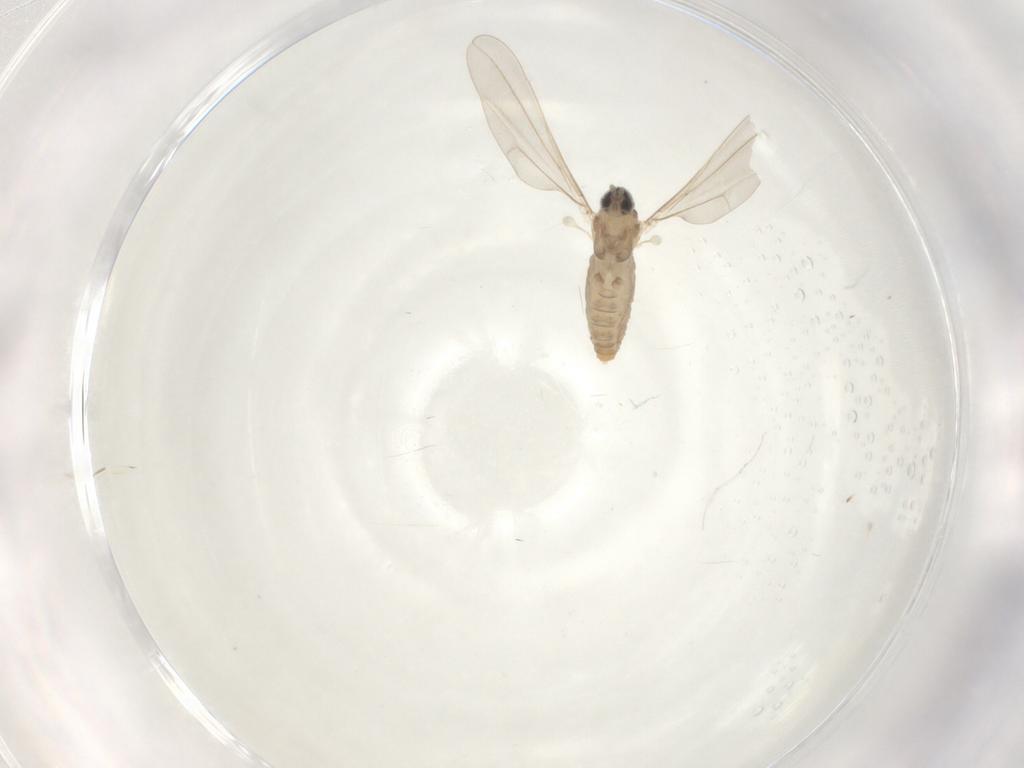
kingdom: Animalia
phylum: Arthropoda
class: Insecta
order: Diptera
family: Cecidomyiidae
